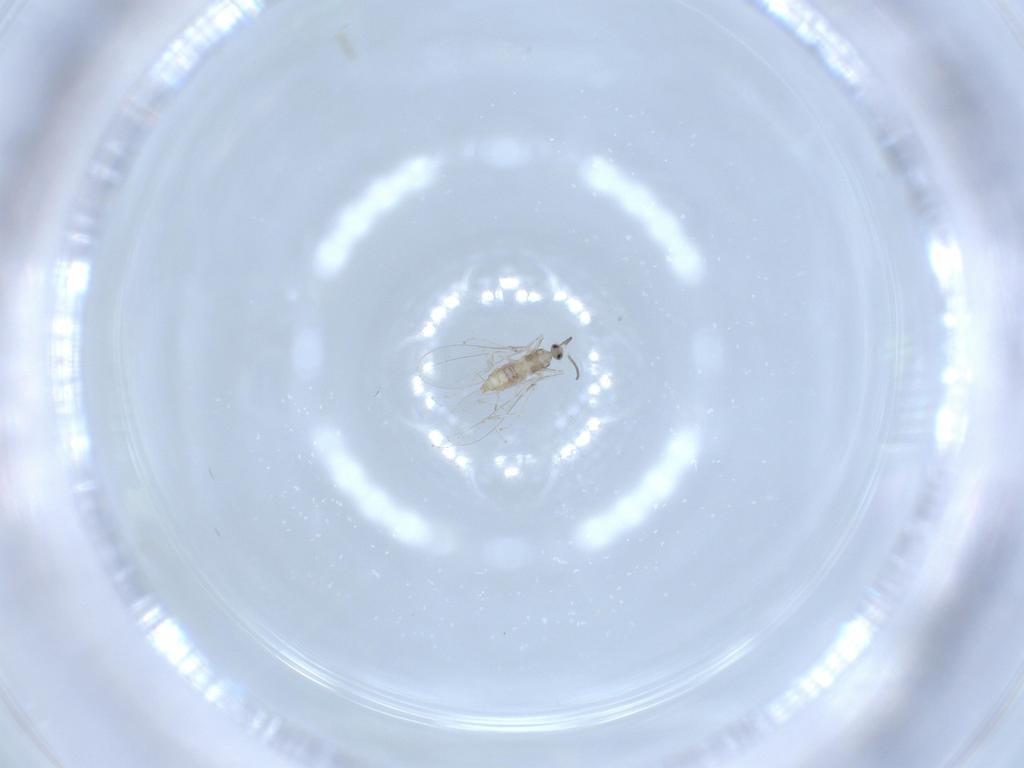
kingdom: Animalia
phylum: Arthropoda
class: Insecta
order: Diptera
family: Cecidomyiidae
